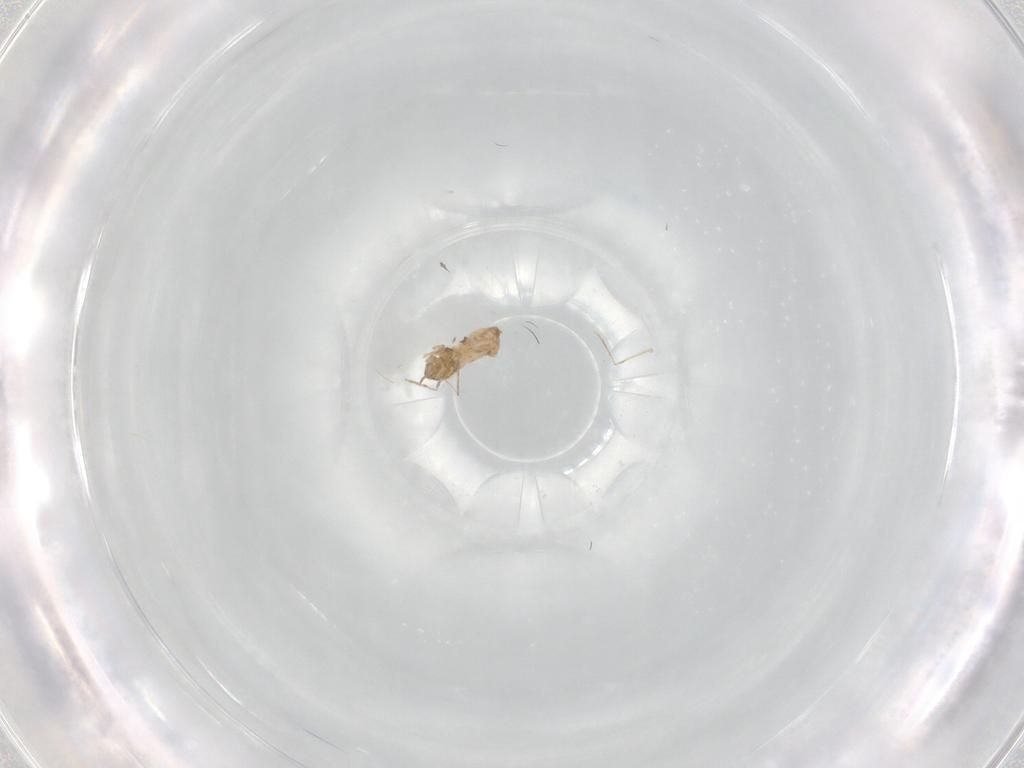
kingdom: Animalia
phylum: Arthropoda
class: Insecta
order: Diptera
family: Cecidomyiidae
